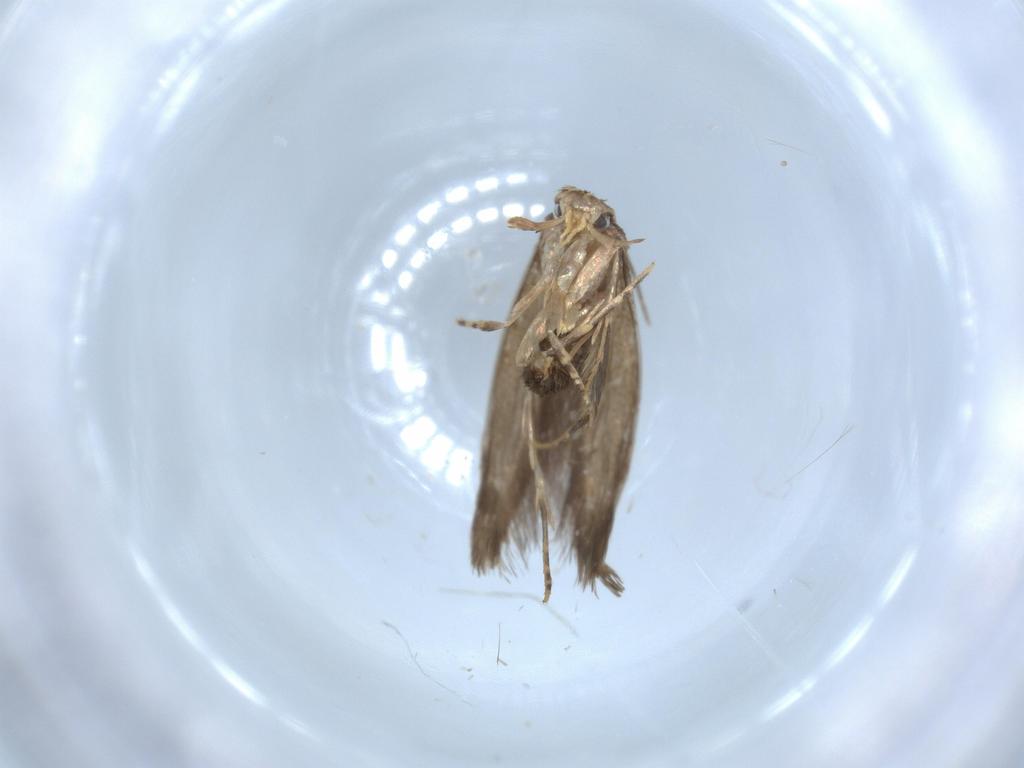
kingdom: Animalia
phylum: Arthropoda
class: Insecta
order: Lepidoptera
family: Tineidae
